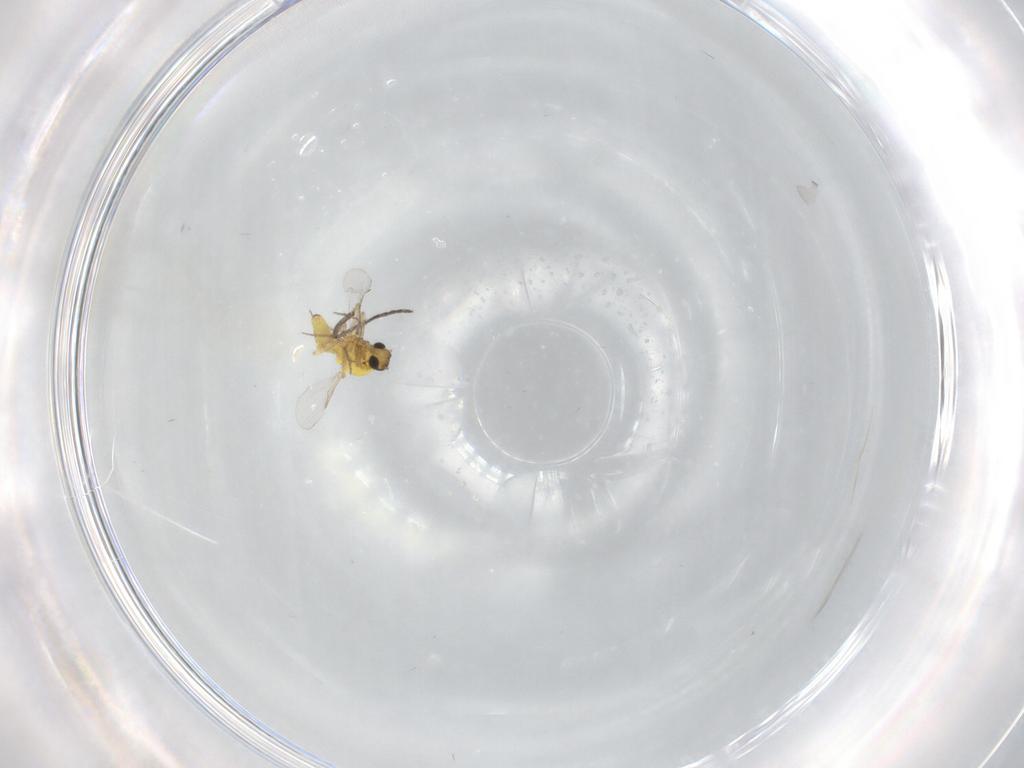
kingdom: Animalia
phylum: Arthropoda
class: Insecta
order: Diptera
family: Ceratopogonidae
